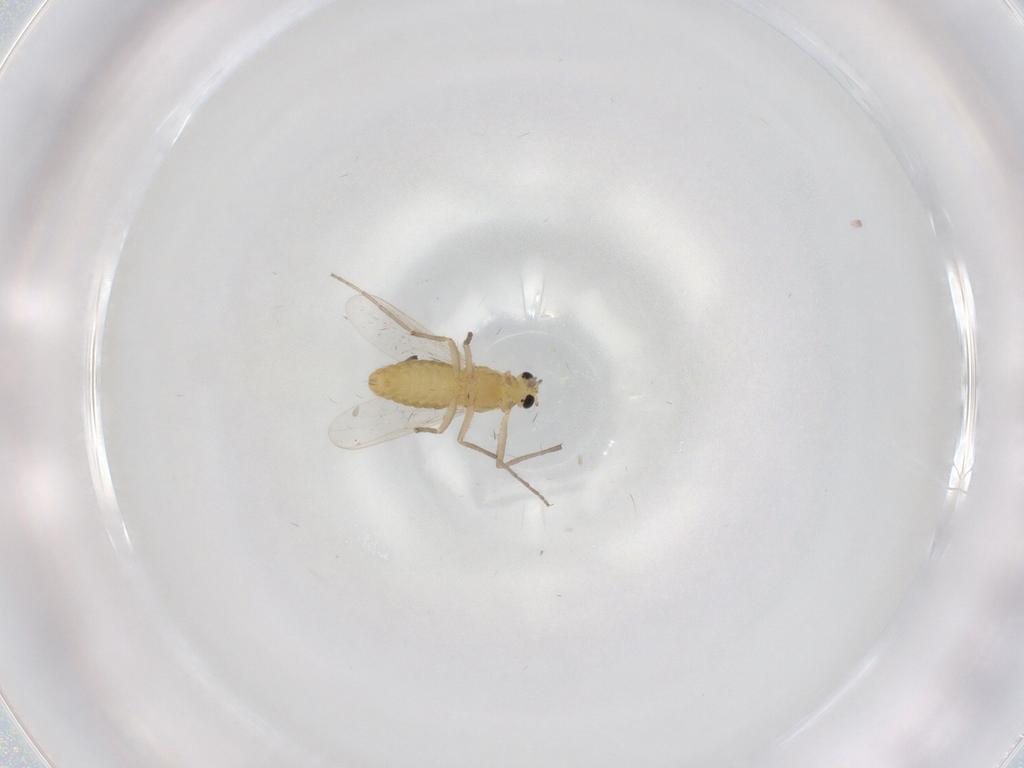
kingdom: Animalia
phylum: Arthropoda
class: Insecta
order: Diptera
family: Chironomidae
